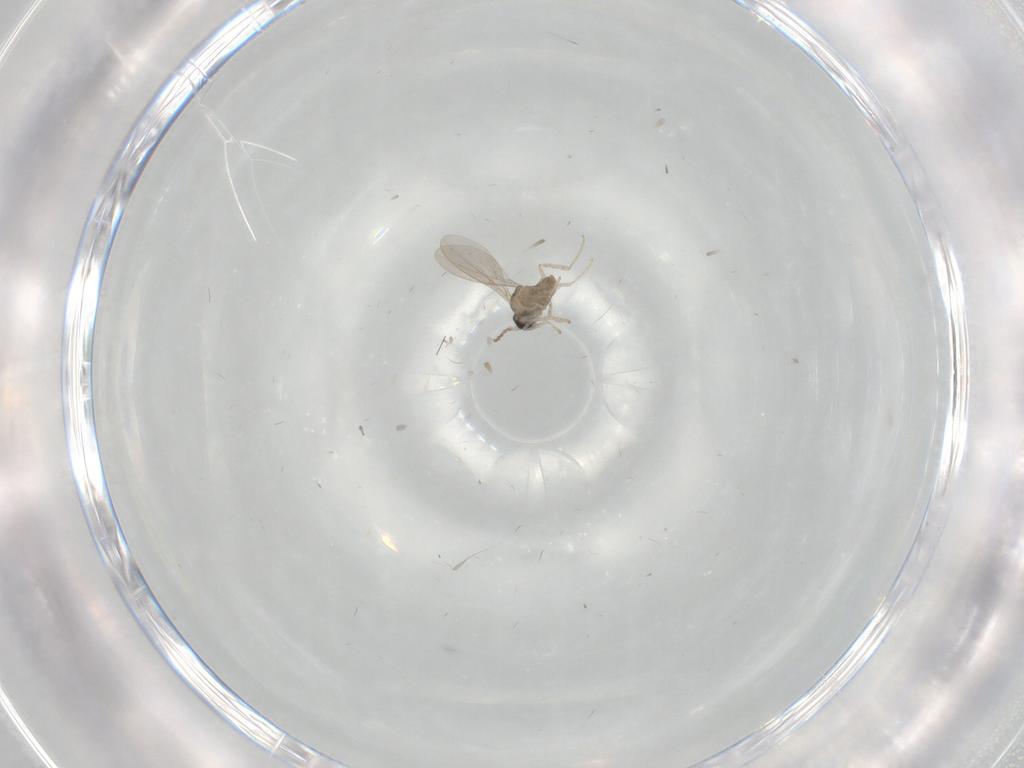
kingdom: Animalia
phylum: Arthropoda
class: Insecta
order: Diptera
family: Chironomidae
